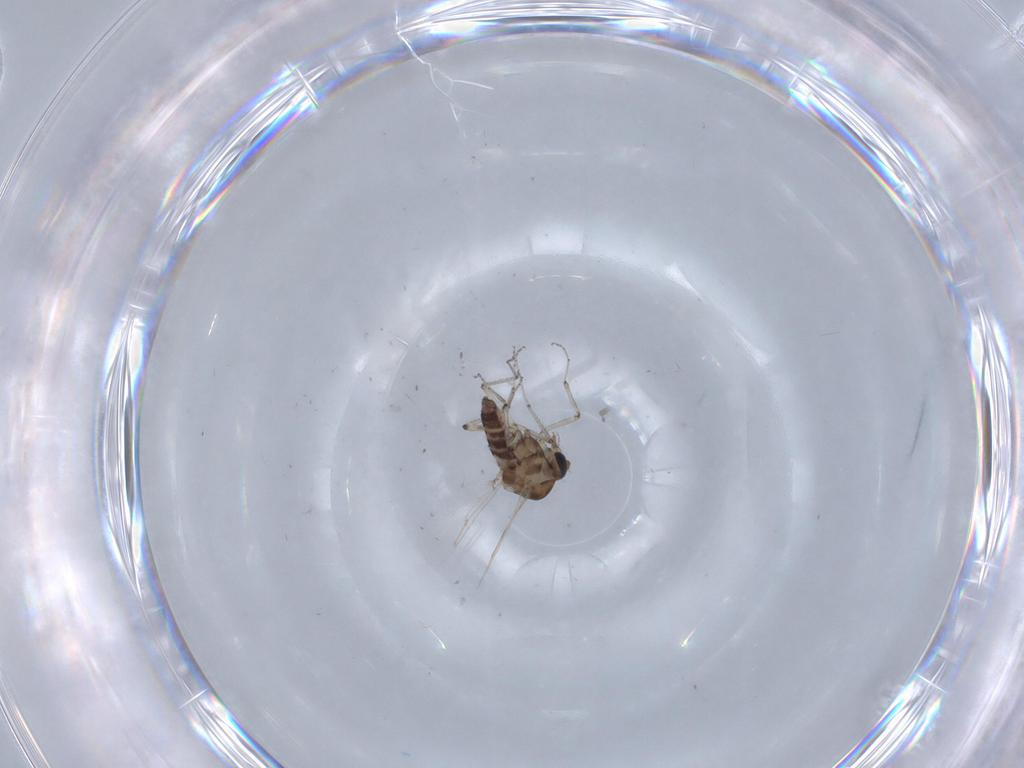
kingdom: Animalia
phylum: Arthropoda
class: Insecta
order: Diptera
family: Ceratopogonidae
